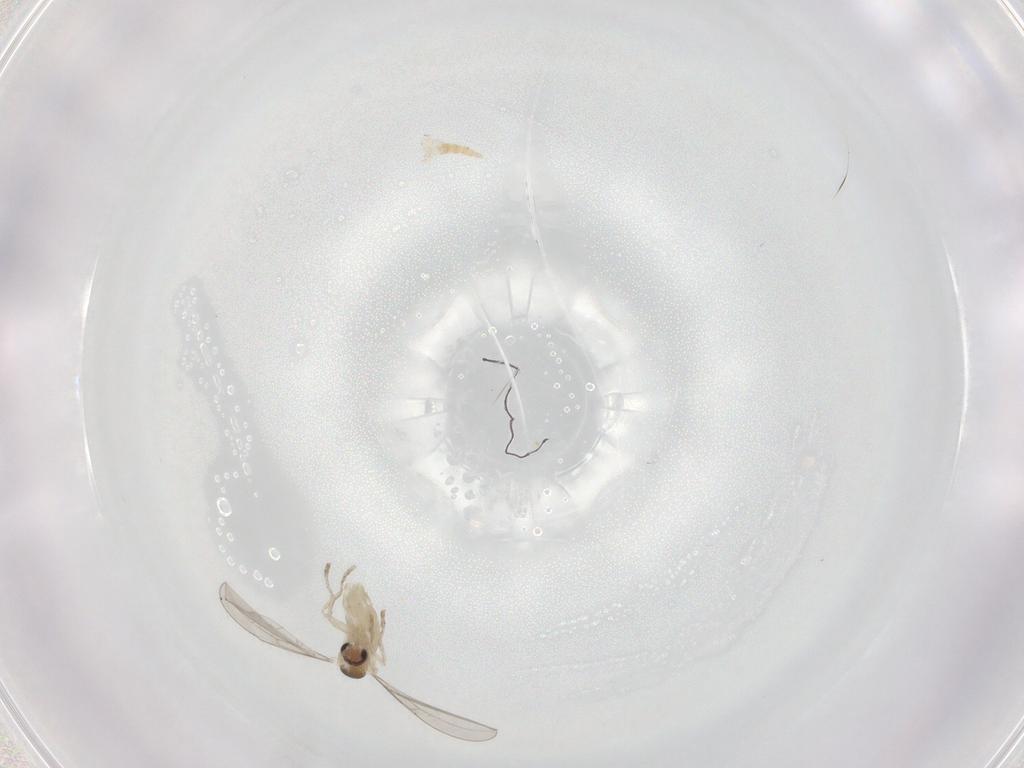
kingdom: Animalia
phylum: Arthropoda
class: Insecta
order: Diptera
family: Cecidomyiidae
